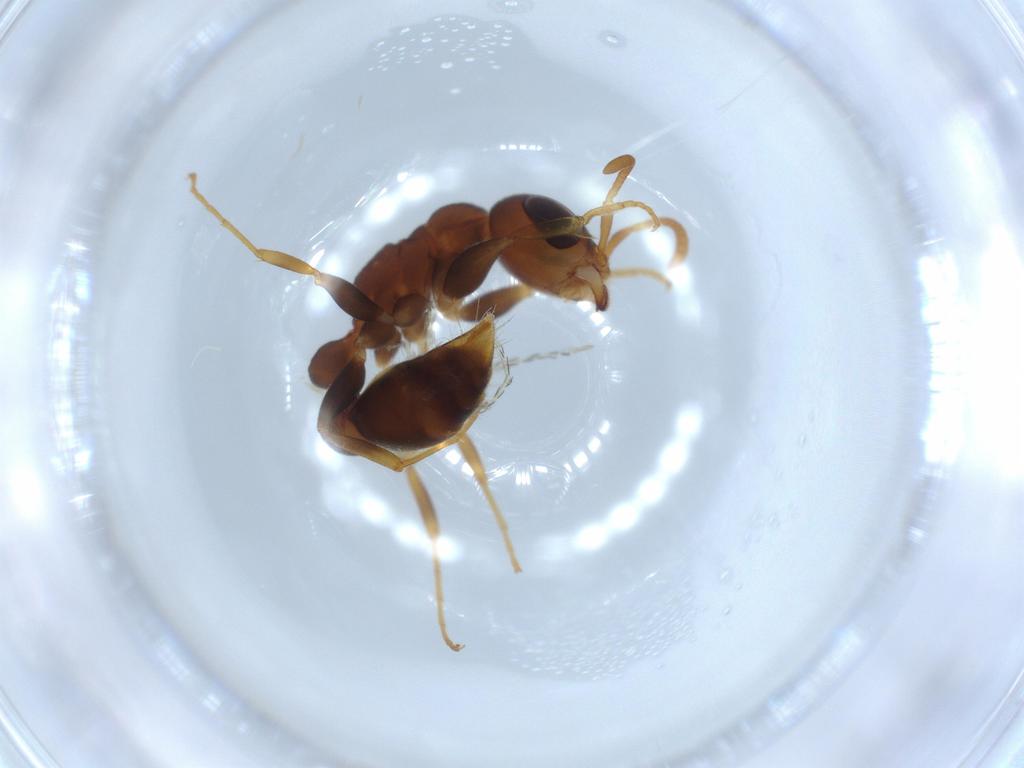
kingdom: Animalia
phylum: Arthropoda
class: Insecta
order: Hymenoptera
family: Formicidae
